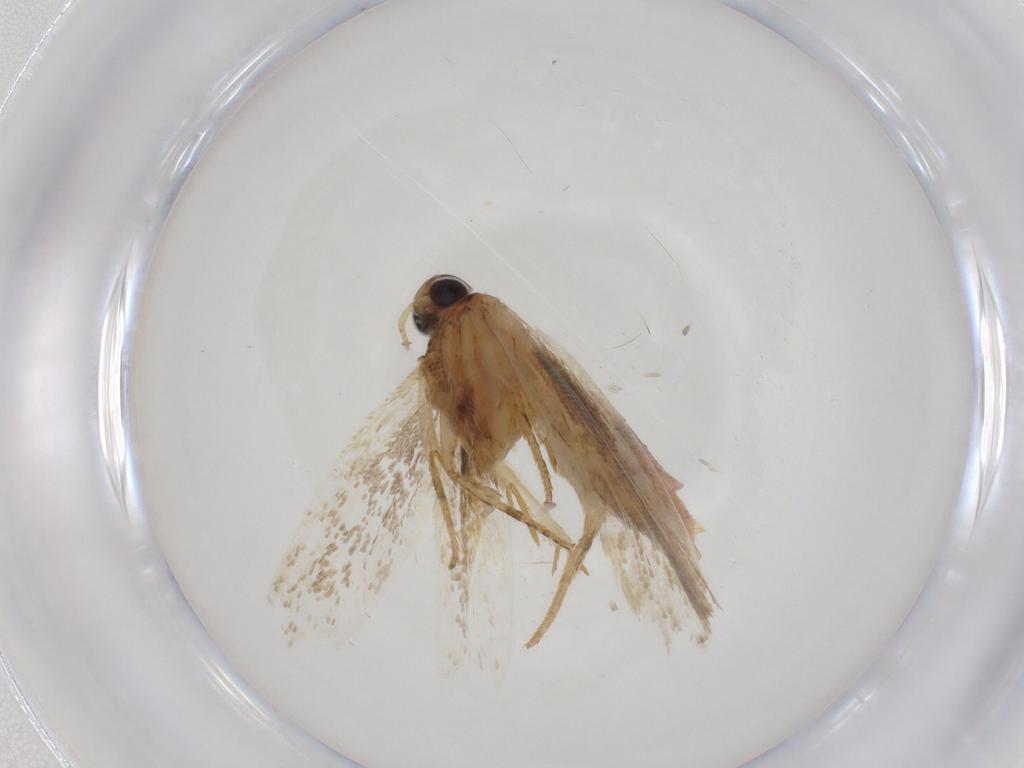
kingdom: Animalia
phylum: Arthropoda
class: Insecta
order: Lepidoptera
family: Gelechiidae
